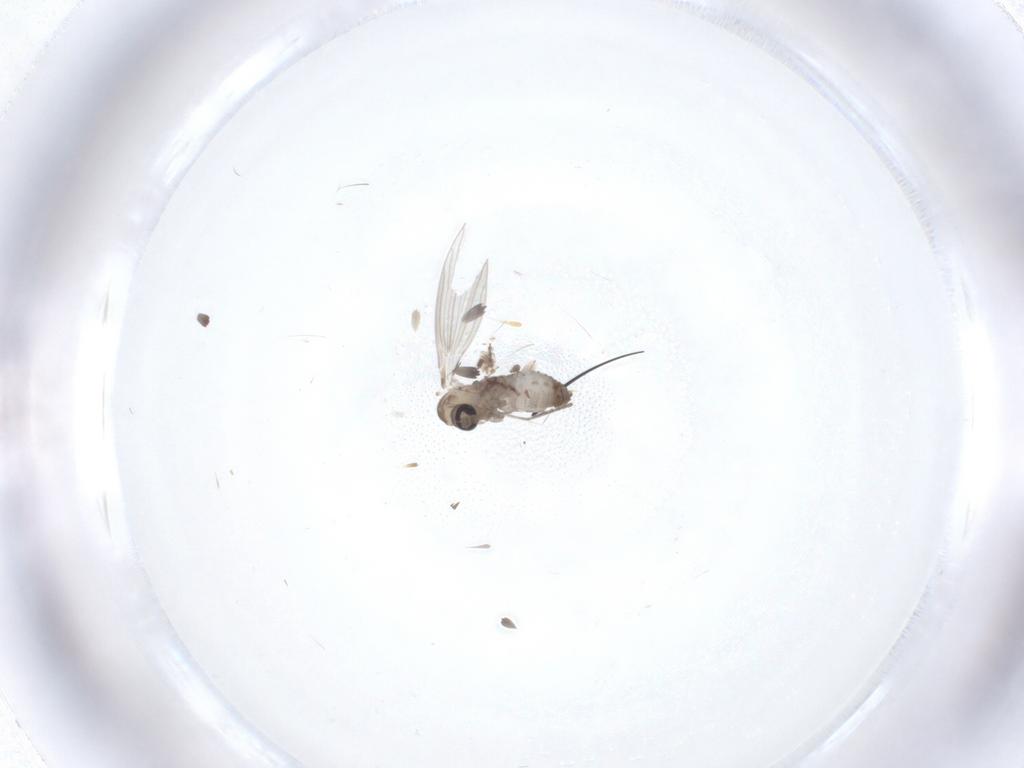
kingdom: Animalia
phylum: Arthropoda
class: Insecta
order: Diptera
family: Psychodidae
